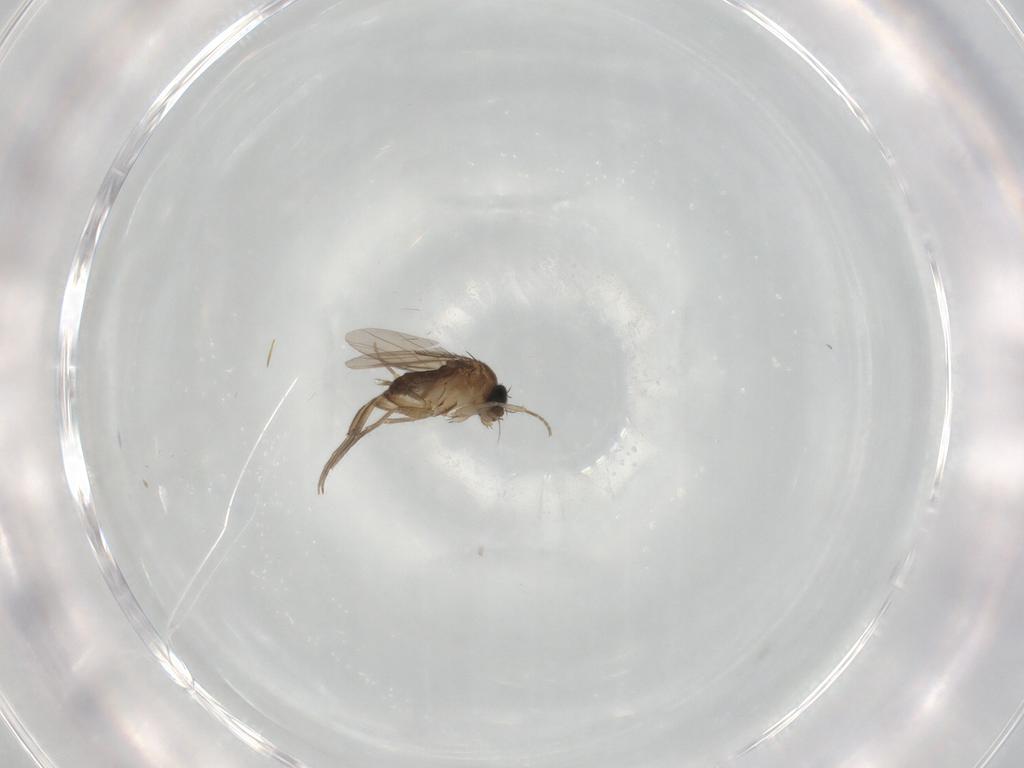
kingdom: Animalia
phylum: Arthropoda
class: Insecta
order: Diptera
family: Phoridae
